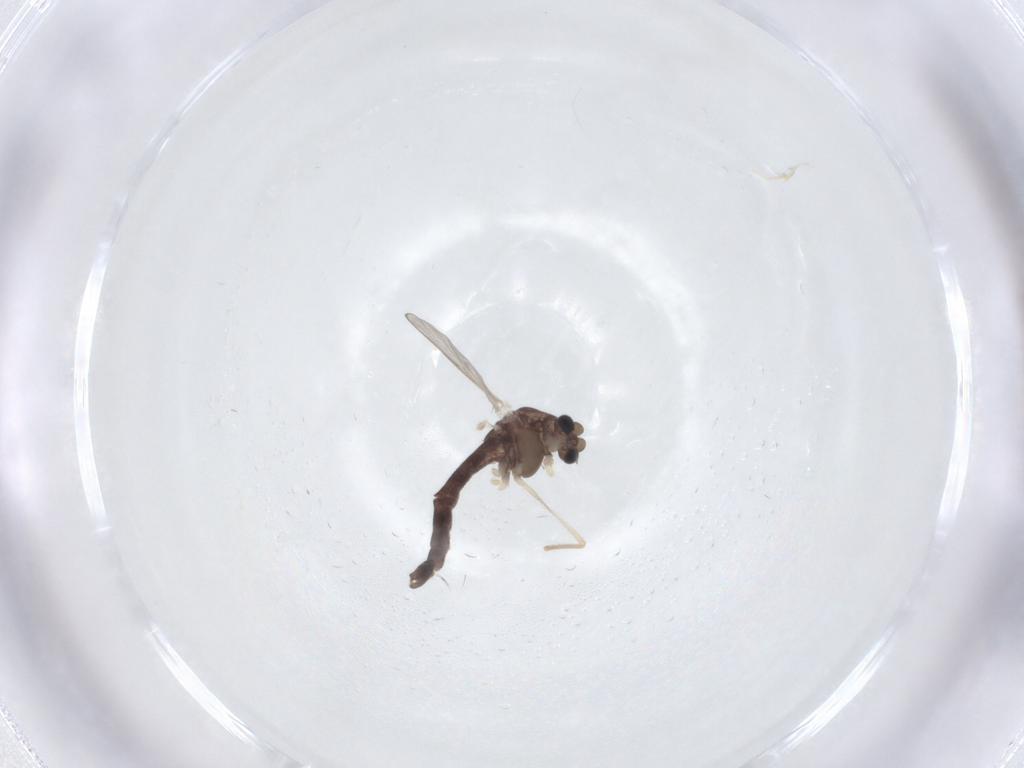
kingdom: Animalia
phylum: Arthropoda
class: Insecta
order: Diptera
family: Chironomidae
